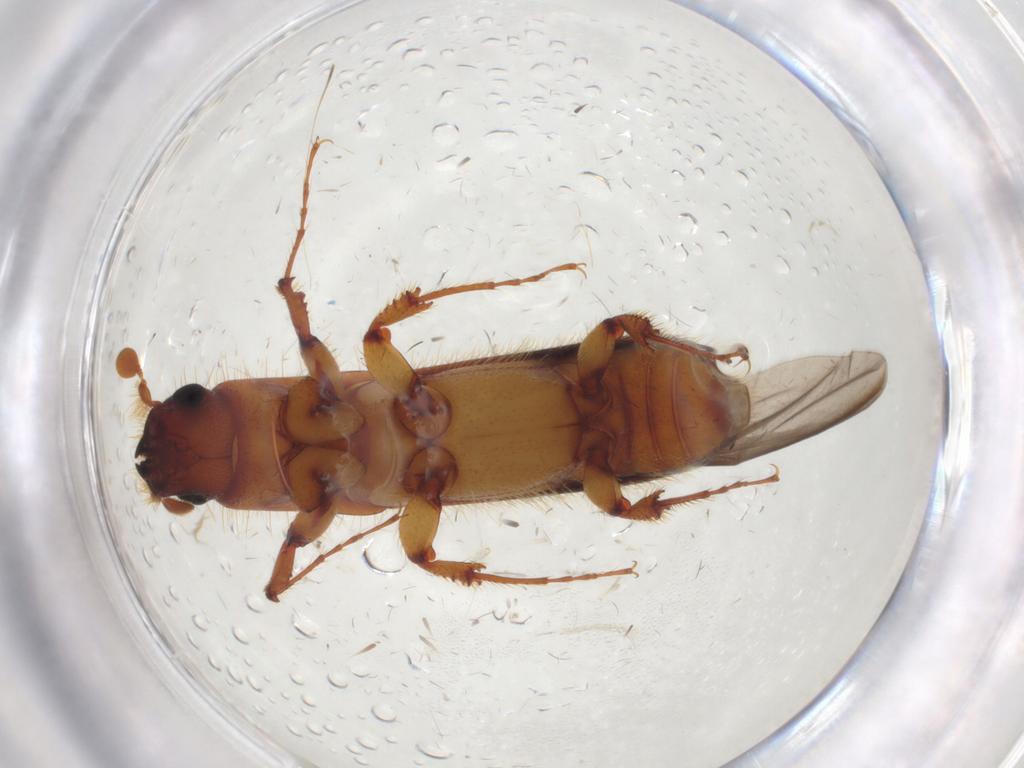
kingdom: Animalia
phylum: Arthropoda
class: Insecta
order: Coleoptera
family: Curculionidae
